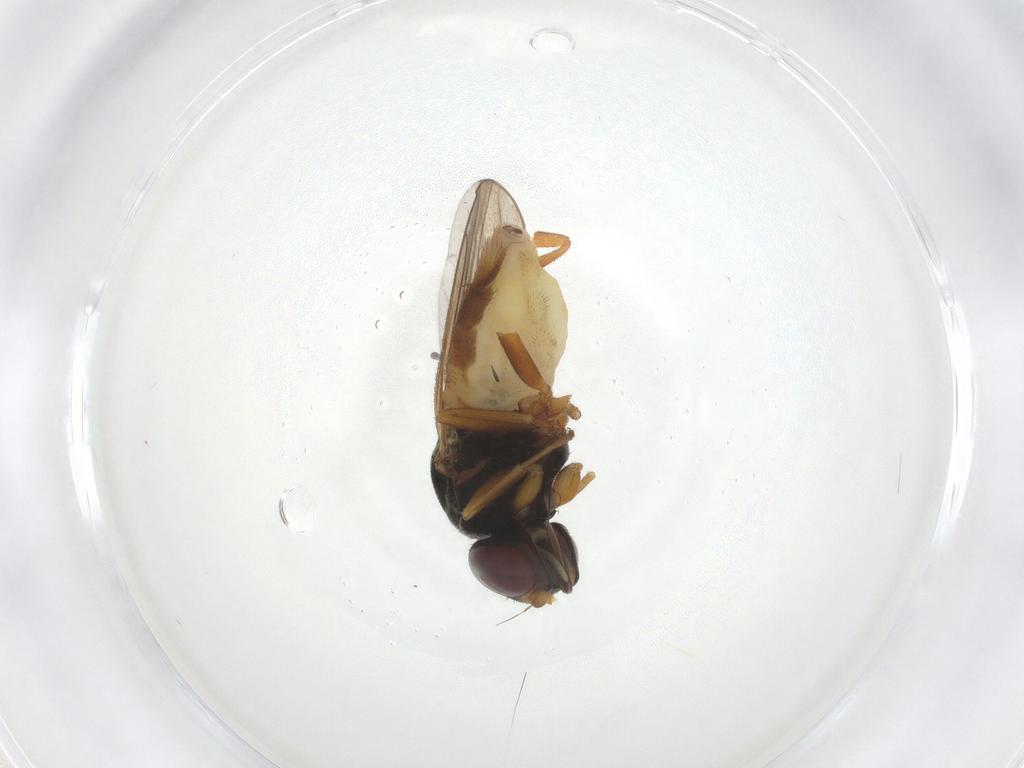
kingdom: Animalia
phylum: Arthropoda
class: Insecta
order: Diptera
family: Chloropidae
